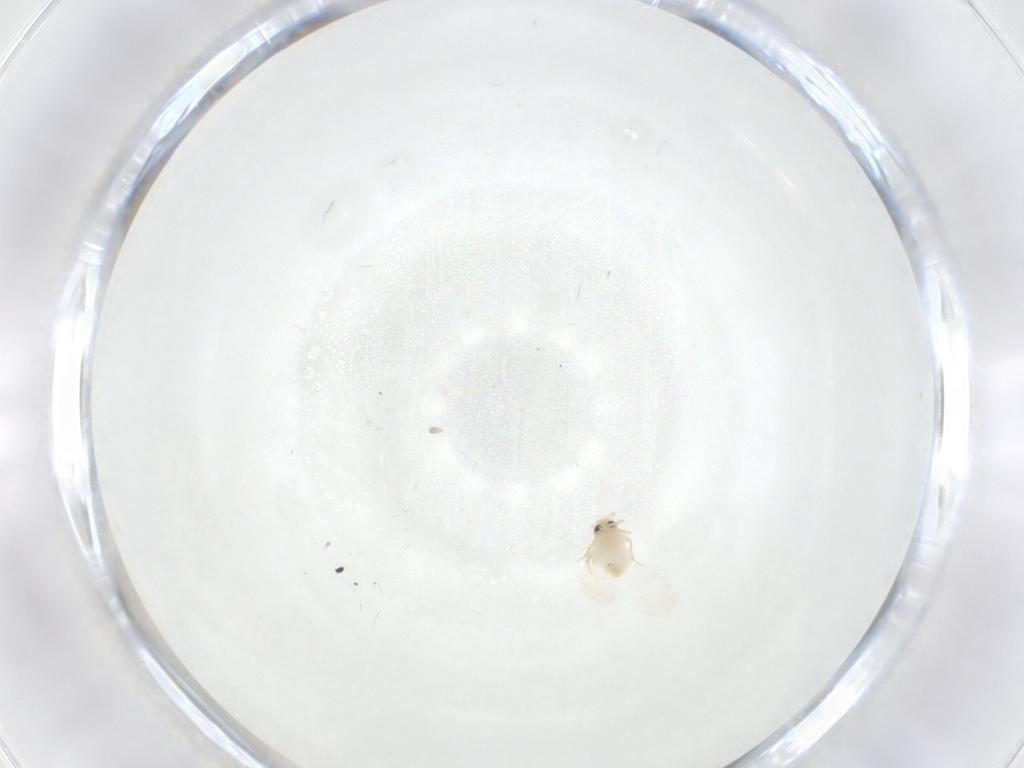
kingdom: Animalia
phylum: Arthropoda
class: Insecta
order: Hemiptera
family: Aleyrodidae
